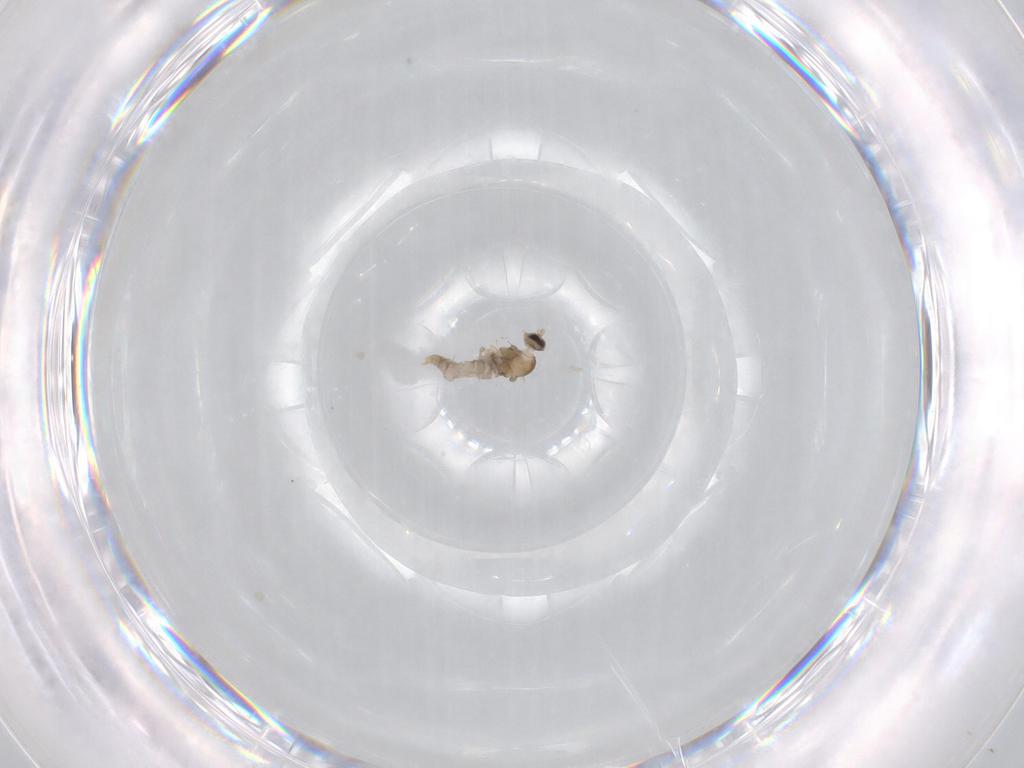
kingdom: Animalia
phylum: Arthropoda
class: Insecta
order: Diptera
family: Cecidomyiidae
